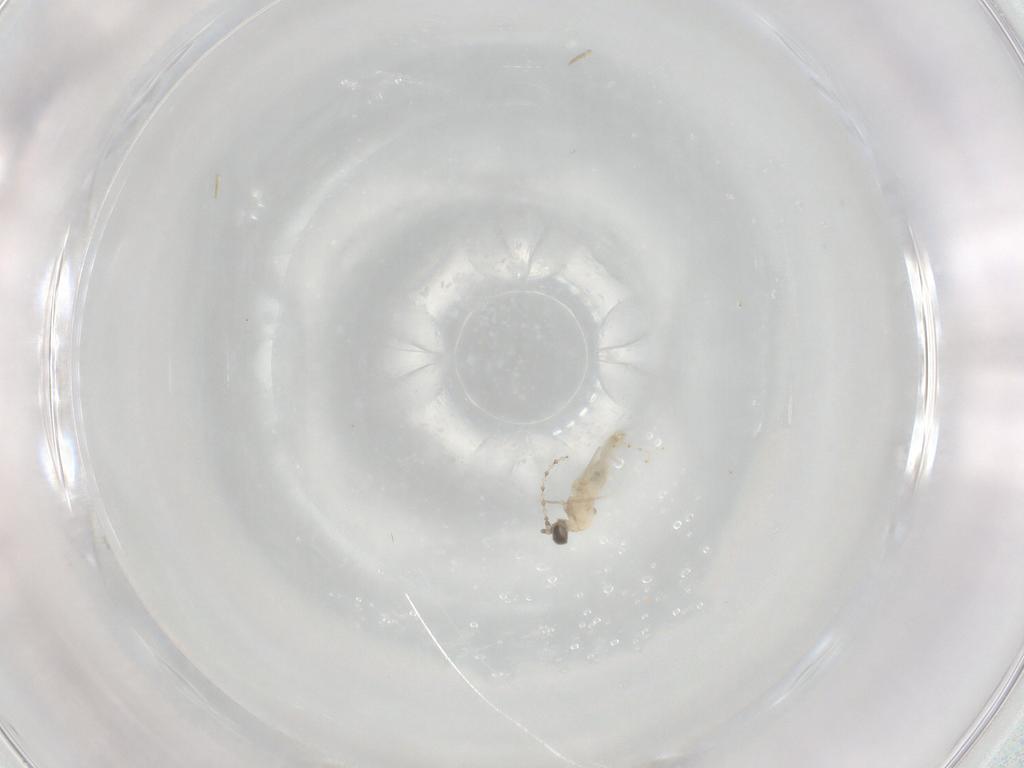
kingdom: Animalia
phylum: Arthropoda
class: Insecta
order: Diptera
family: Cecidomyiidae
